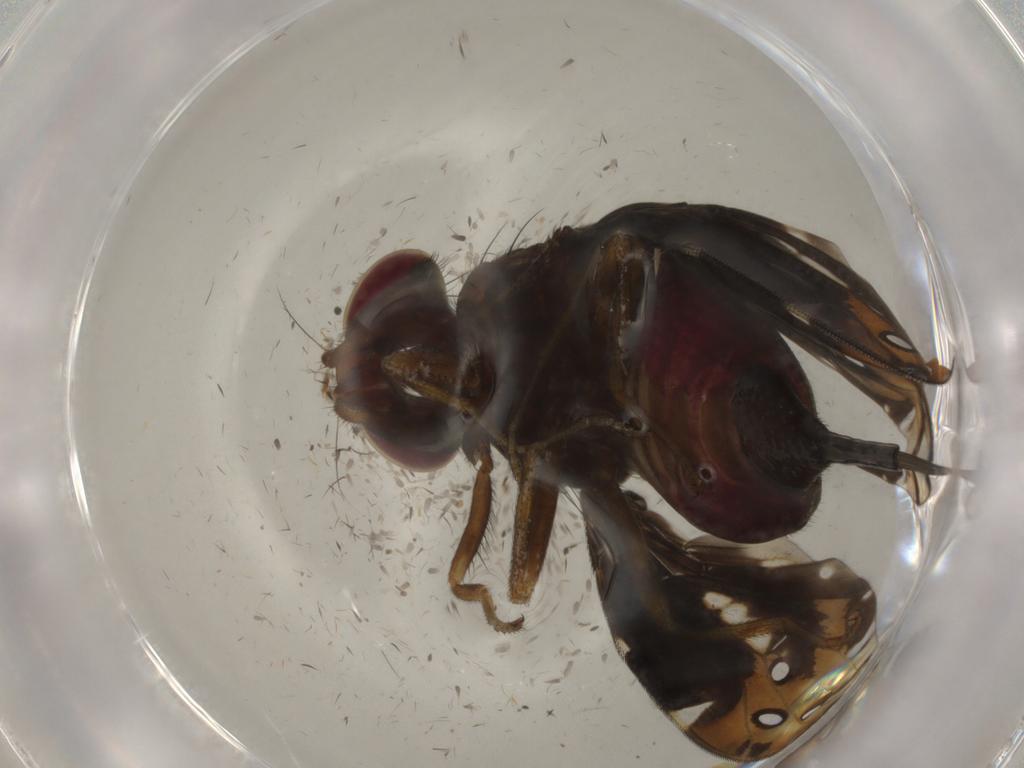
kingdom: Animalia
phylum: Arthropoda
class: Insecta
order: Diptera
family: Ulidiidae
